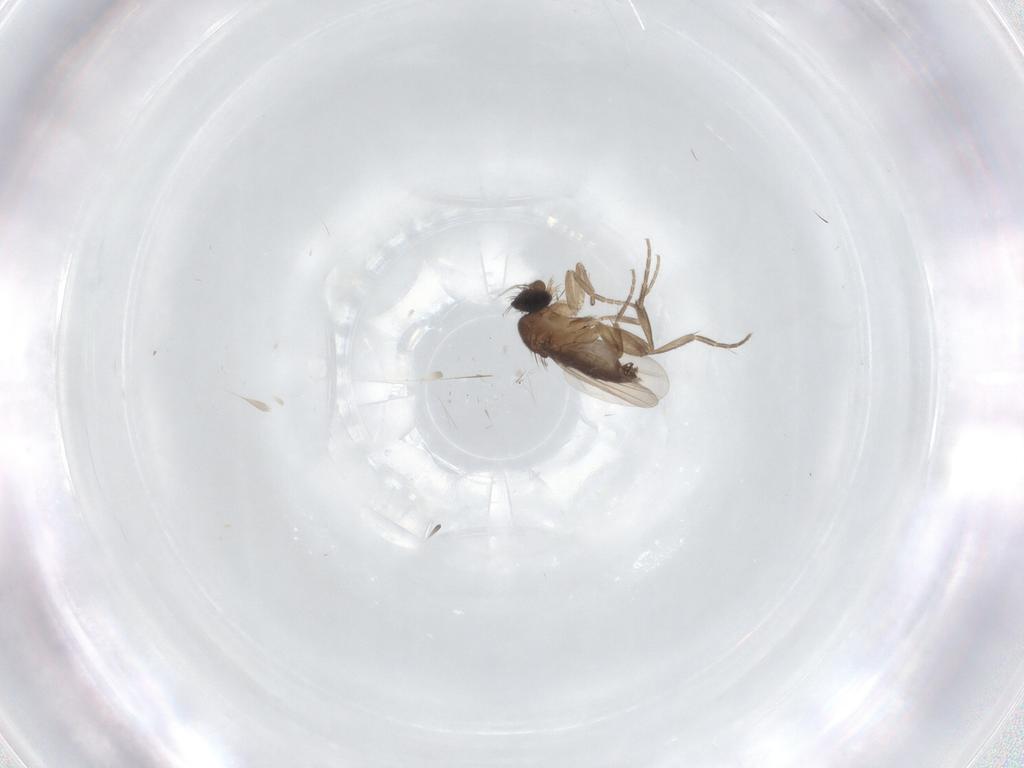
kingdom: Animalia
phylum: Arthropoda
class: Insecta
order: Diptera
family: Phoridae
